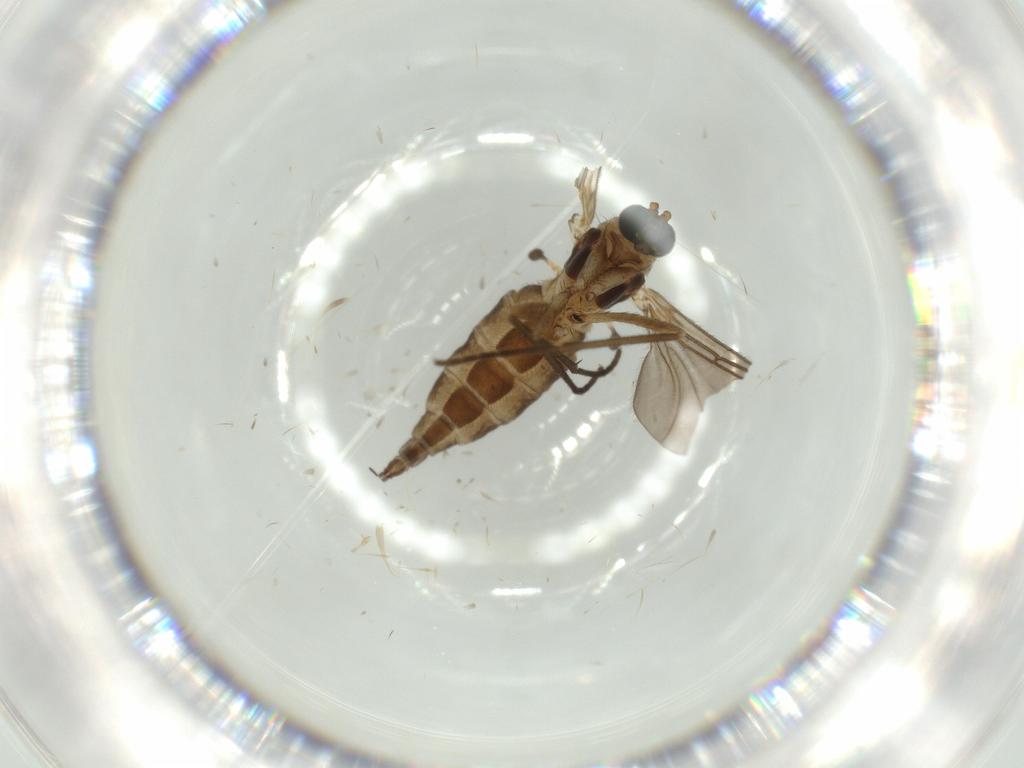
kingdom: Animalia
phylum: Arthropoda
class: Insecta
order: Diptera
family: Sciaridae
